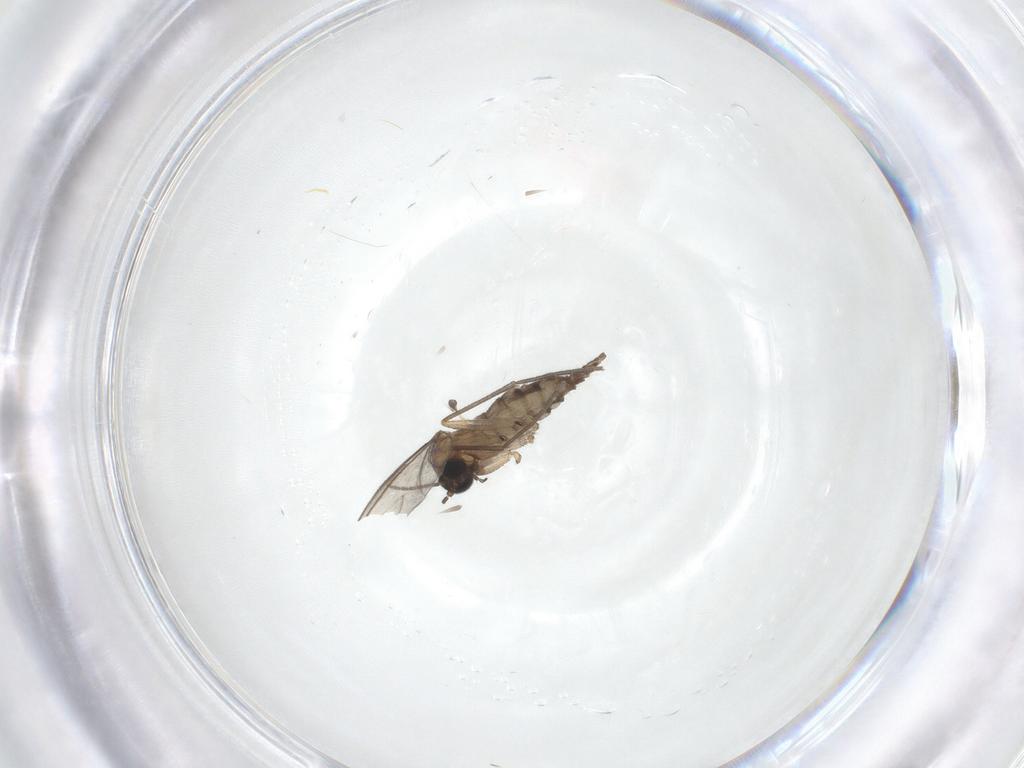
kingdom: Animalia
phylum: Arthropoda
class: Insecta
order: Diptera
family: Sciaridae
